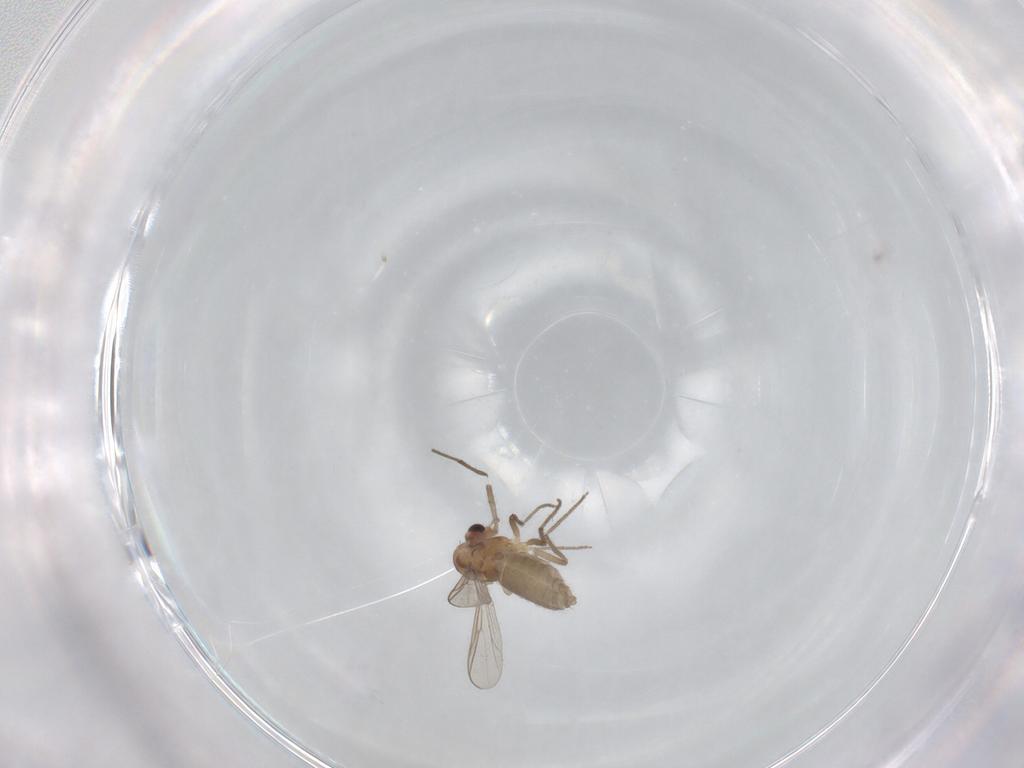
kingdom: Animalia
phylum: Arthropoda
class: Insecta
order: Diptera
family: Chironomidae
